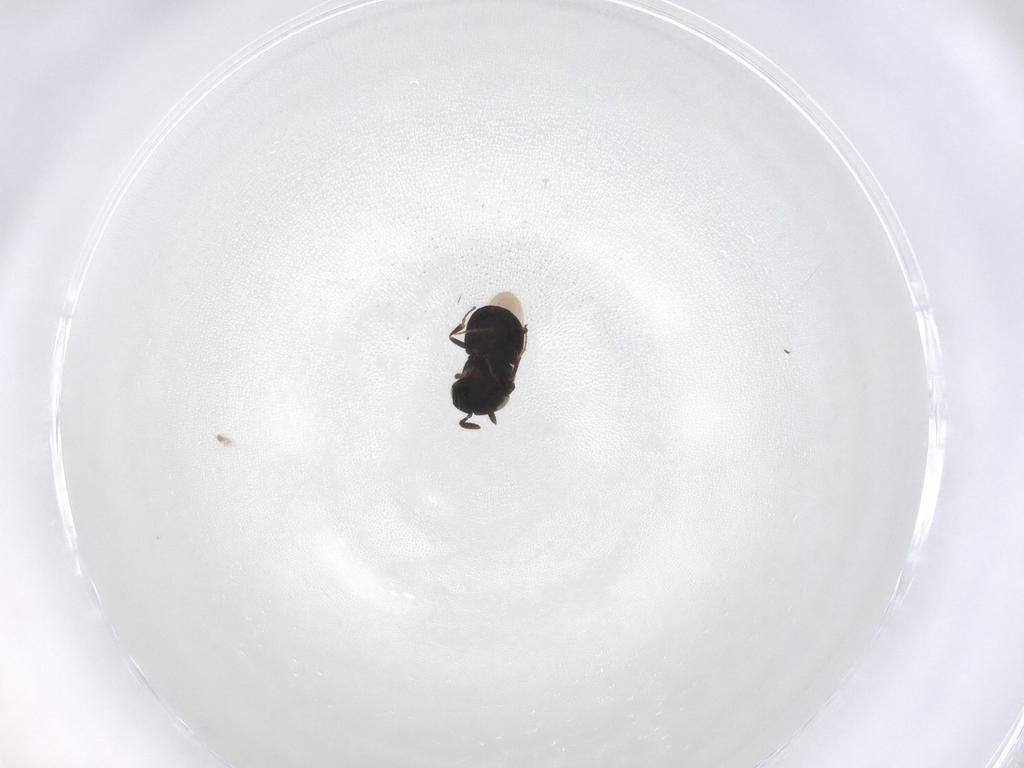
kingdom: Animalia
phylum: Arthropoda
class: Insecta
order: Hymenoptera
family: Scelionidae
